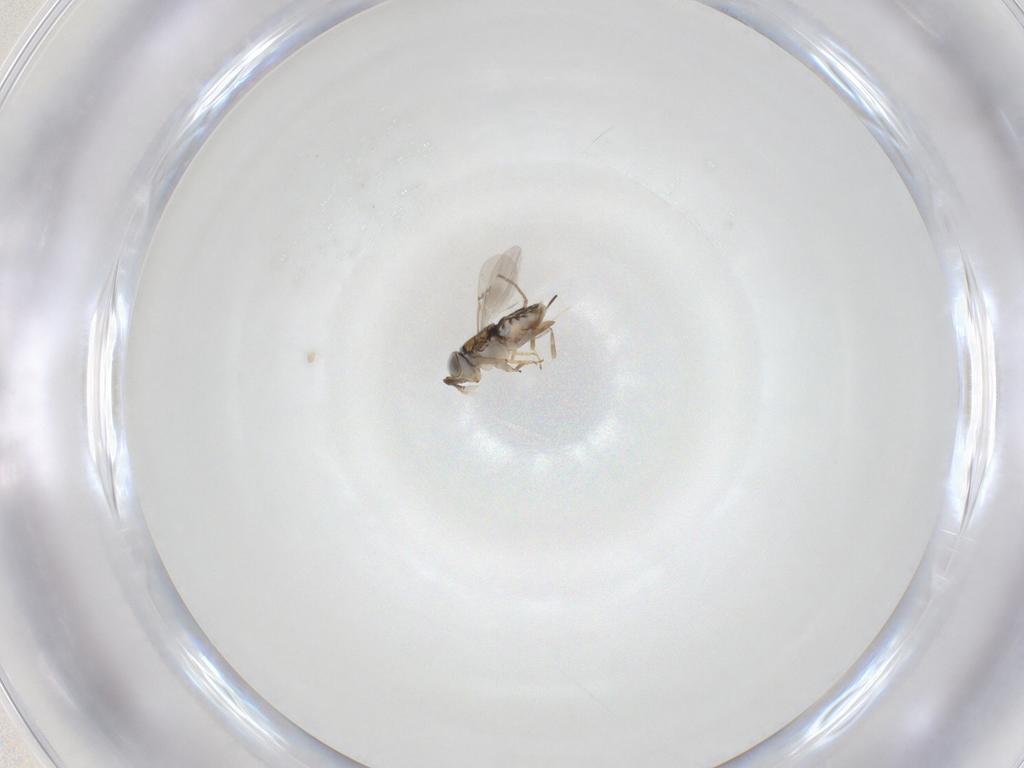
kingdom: Animalia
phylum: Arthropoda
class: Insecta
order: Hymenoptera
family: Encyrtidae
